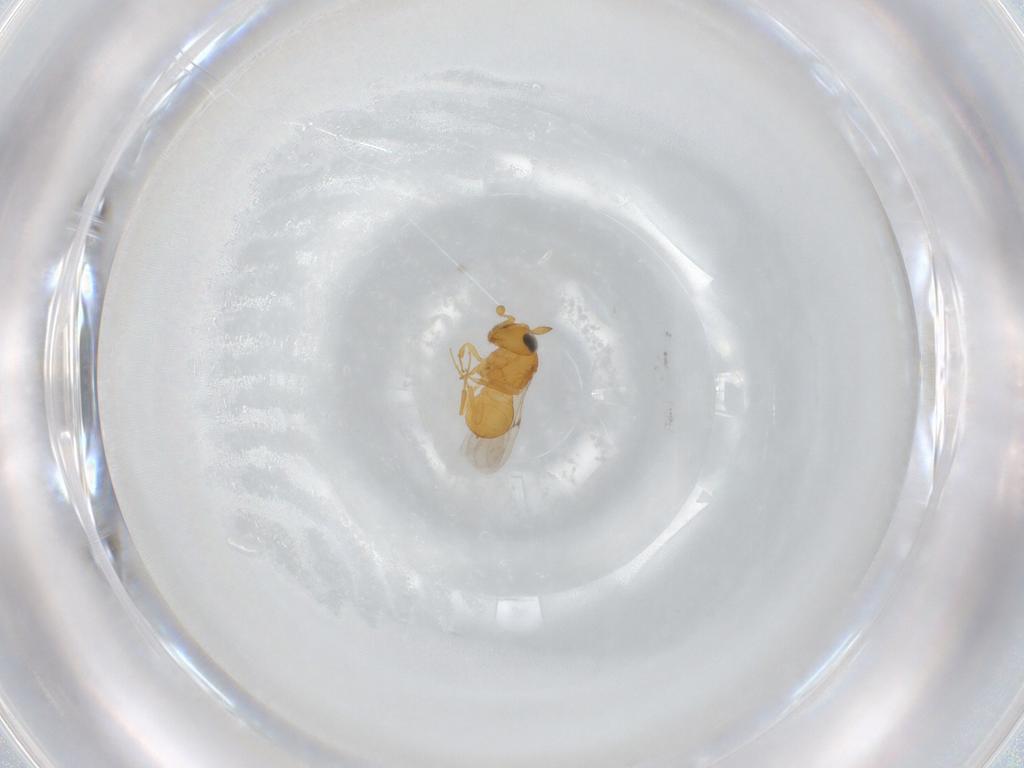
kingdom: Animalia
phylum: Arthropoda
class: Insecta
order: Hymenoptera
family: Scelionidae
